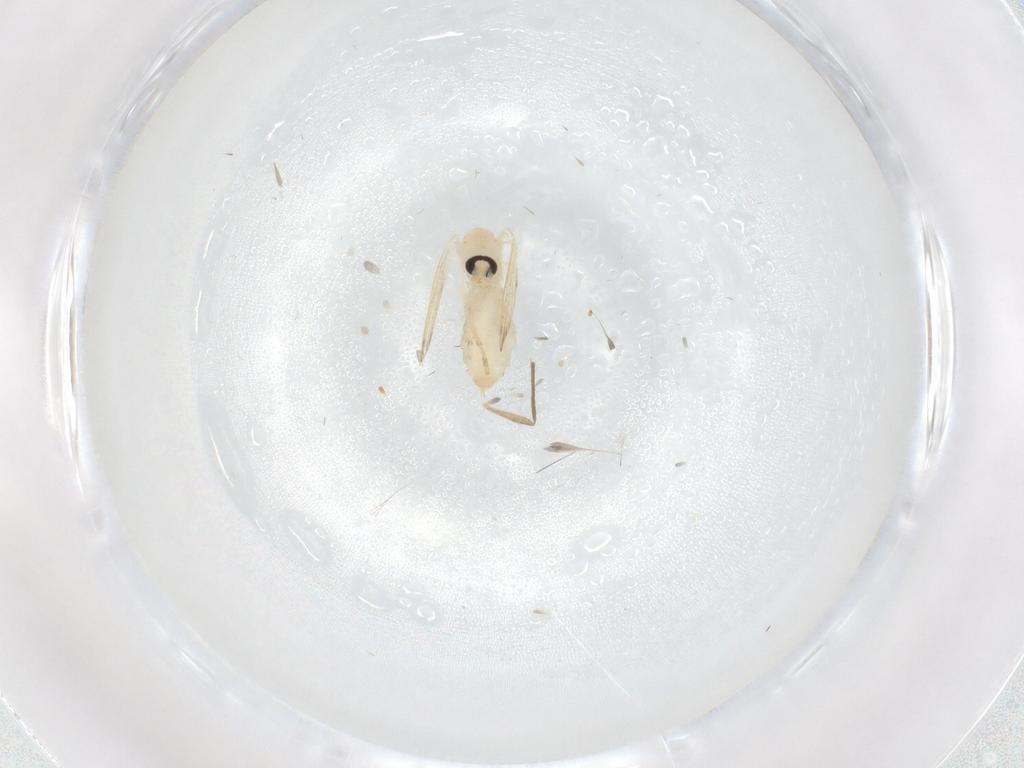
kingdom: Animalia
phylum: Arthropoda
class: Insecta
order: Diptera
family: Psychodidae
